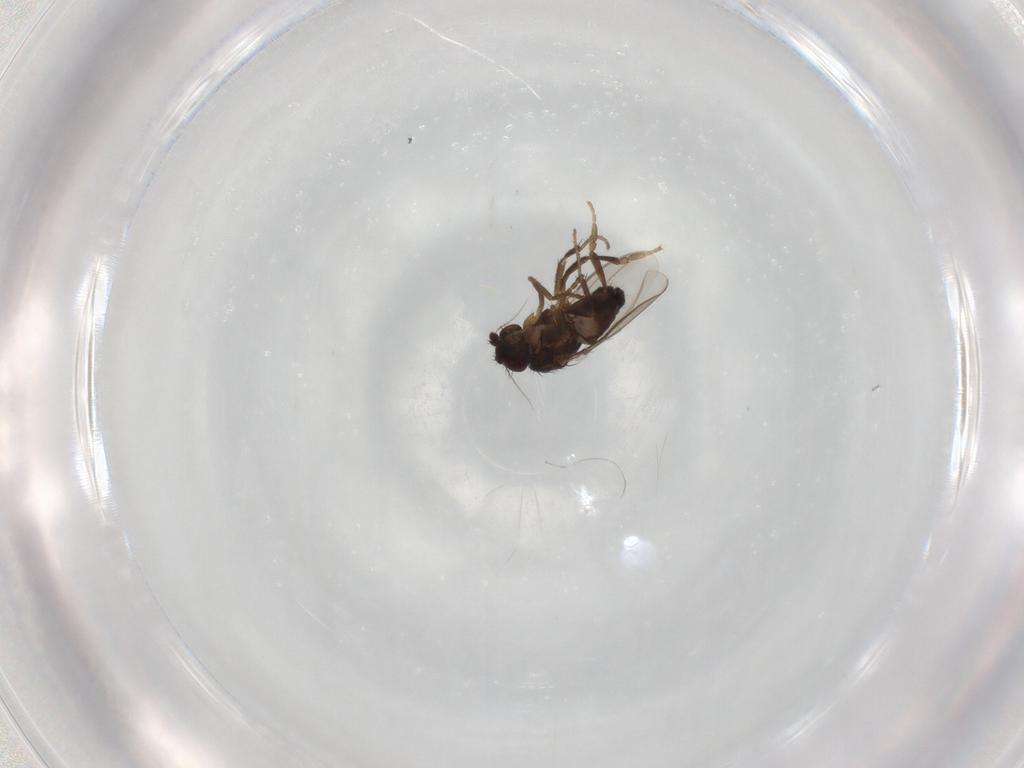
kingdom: Animalia
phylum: Arthropoda
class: Insecta
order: Diptera
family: Sphaeroceridae
